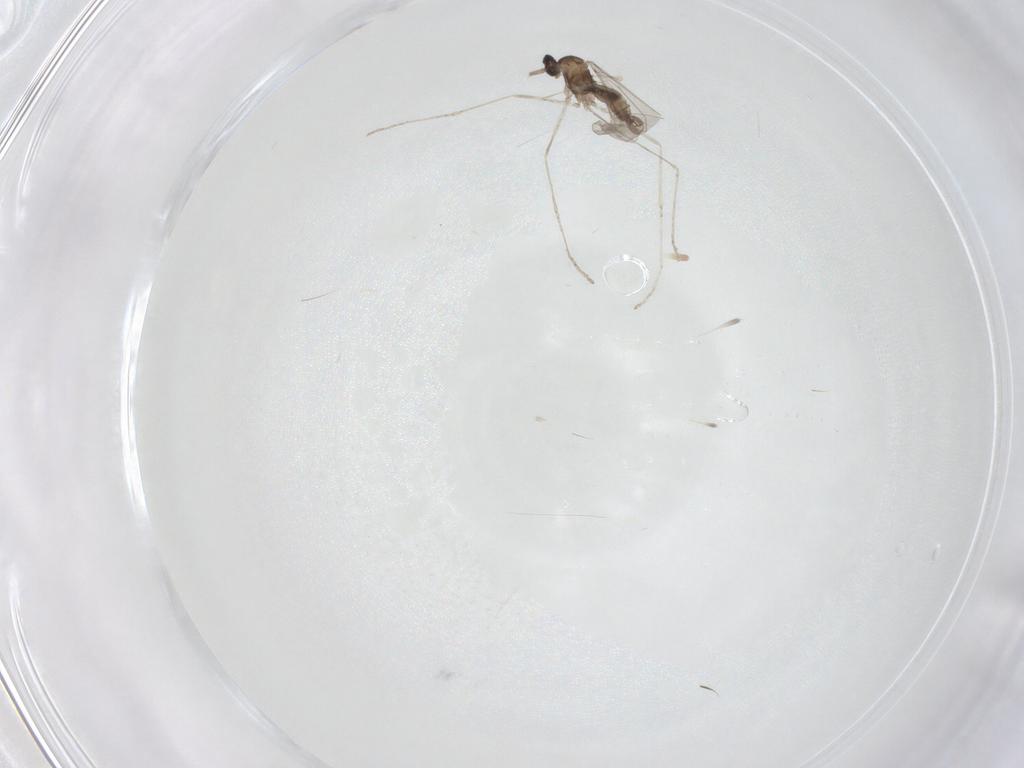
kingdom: Animalia
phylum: Arthropoda
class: Insecta
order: Diptera
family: Cecidomyiidae
